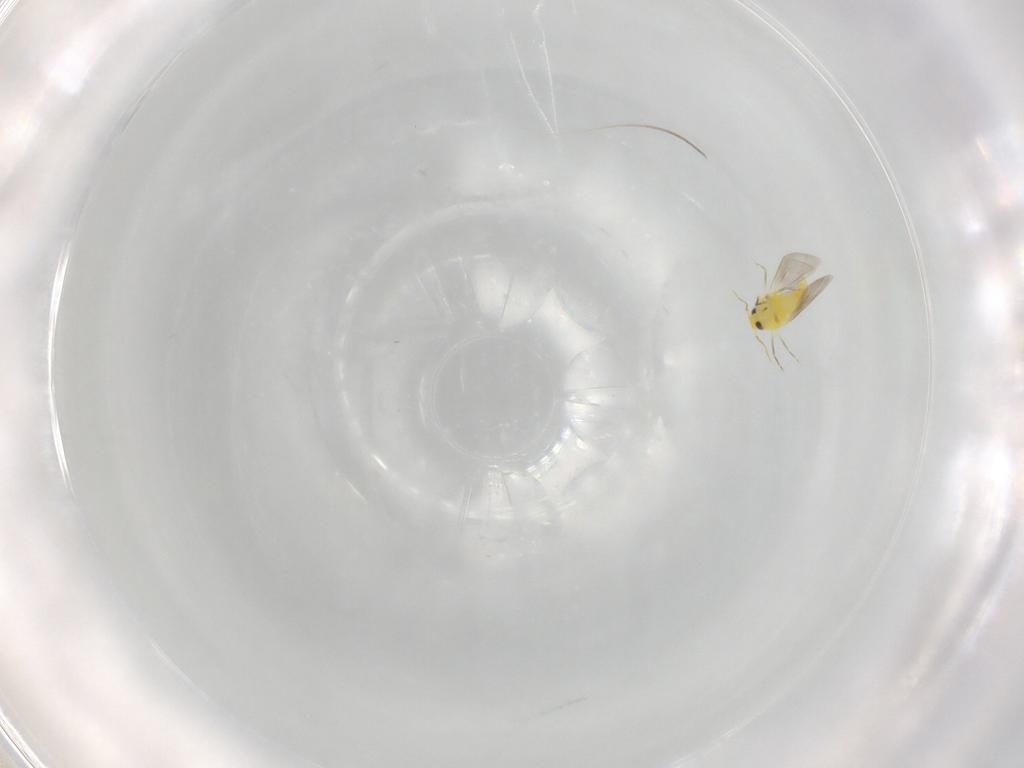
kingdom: Animalia
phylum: Arthropoda
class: Insecta
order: Hemiptera
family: Aleyrodidae
